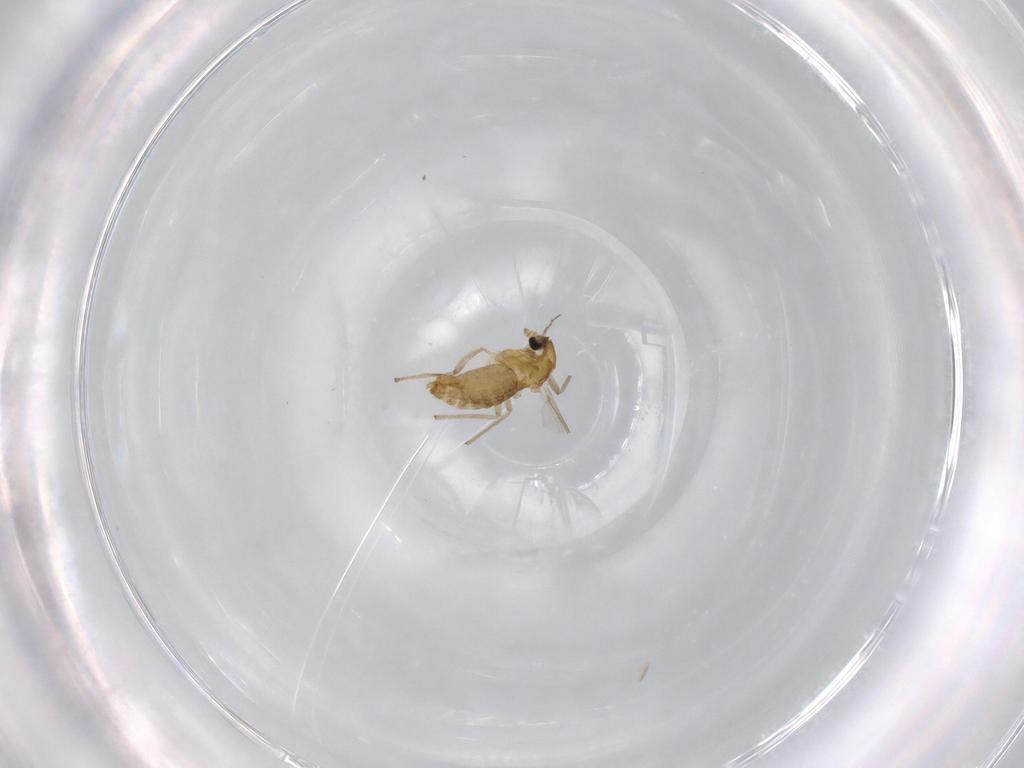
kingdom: Animalia
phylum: Arthropoda
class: Insecta
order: Diptera
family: Chironomidae
